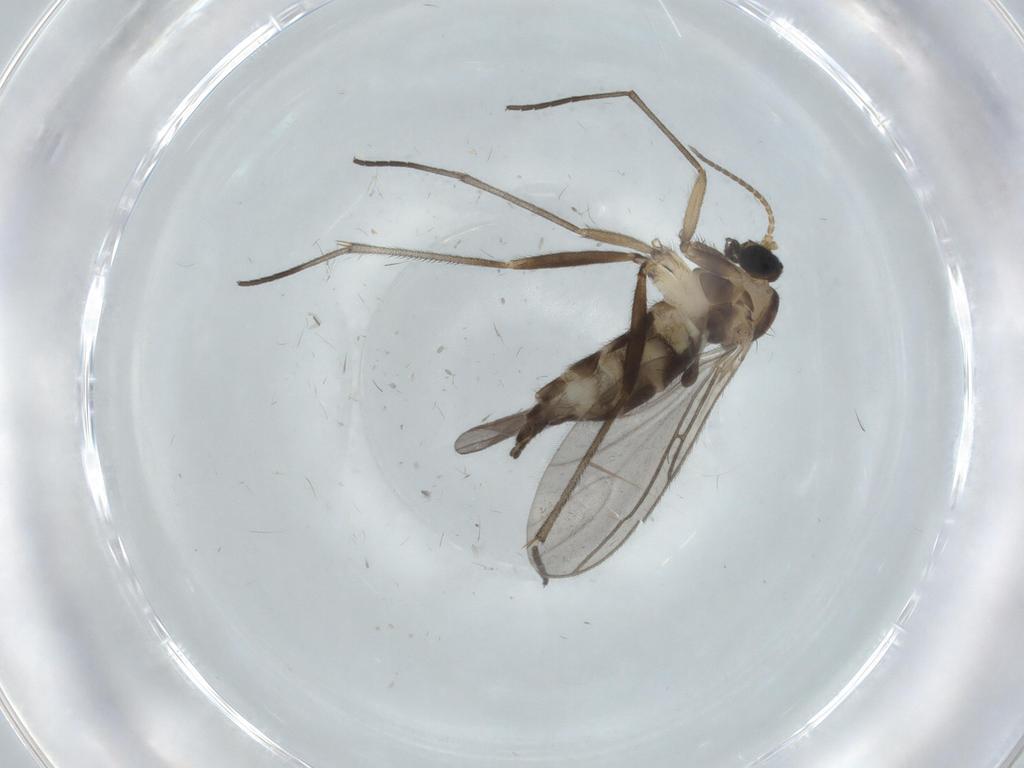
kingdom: Animalia
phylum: Arthropoda
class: Insecta
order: Diptera
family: Sciaridae
